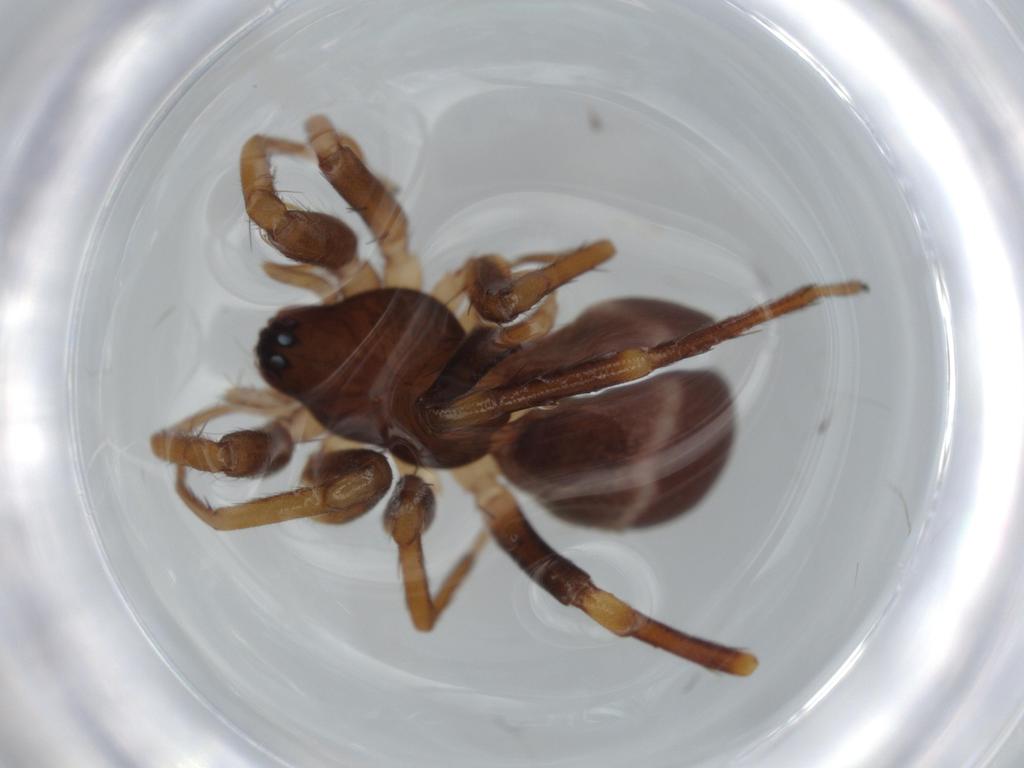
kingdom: Animalia
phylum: Arthropoda
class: Arachnida
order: Araneae
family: Corinnidae
